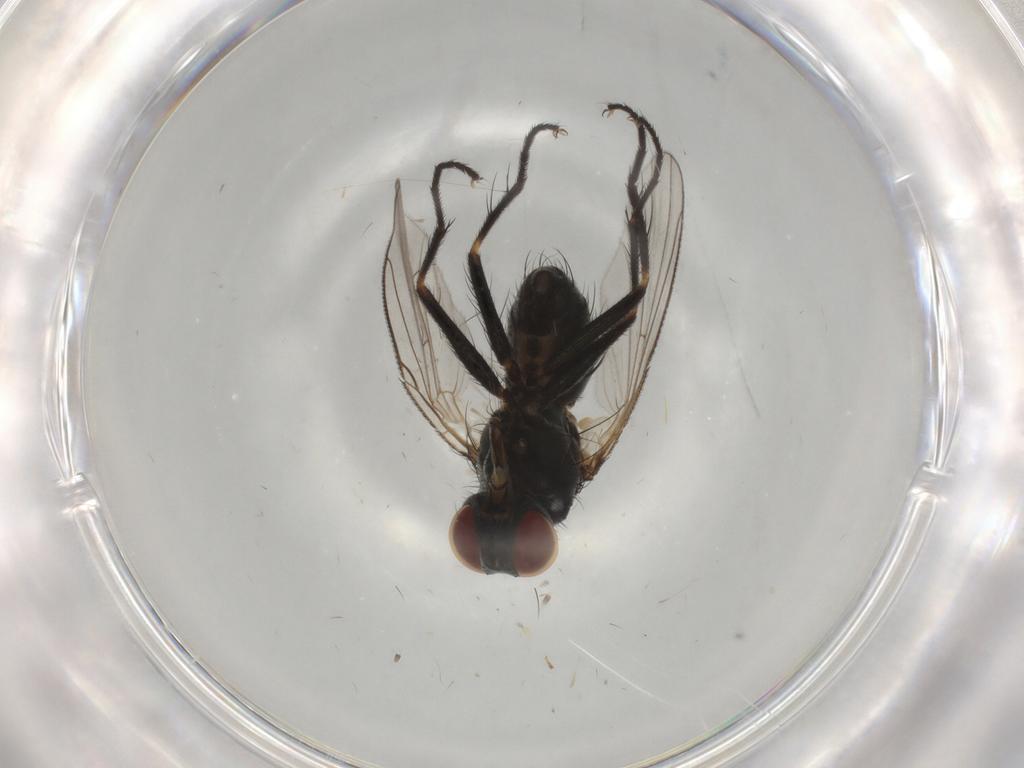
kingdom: Animalia
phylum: Arthropoda
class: Insecta
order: Diptera
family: Muscidae
